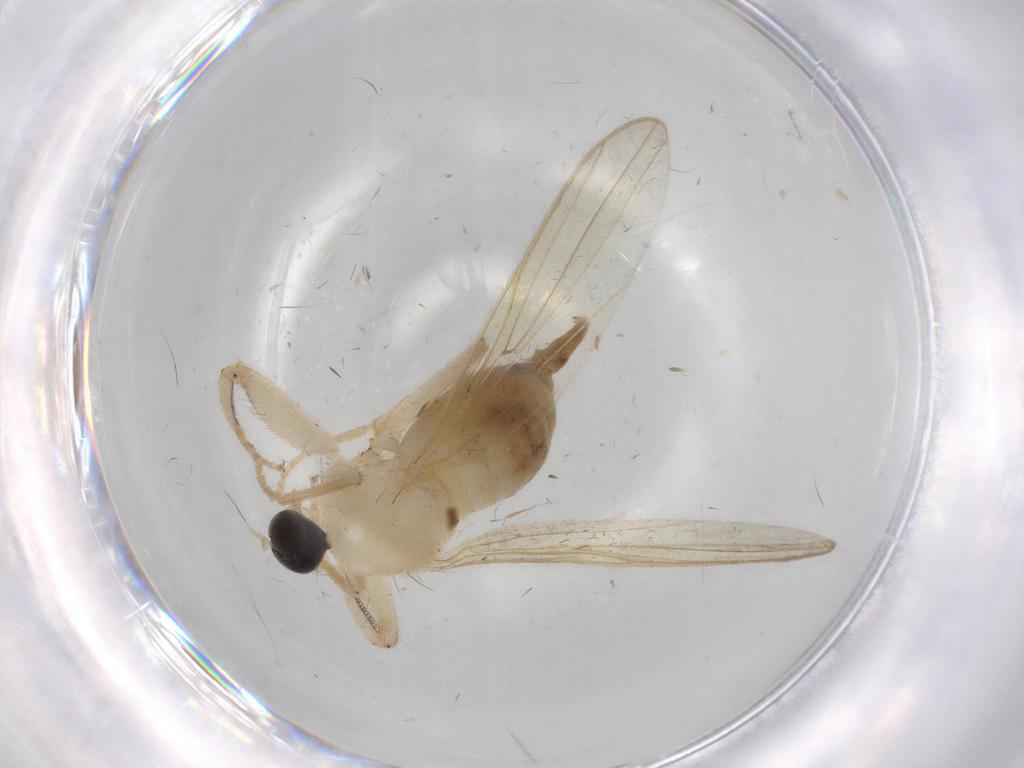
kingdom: Animalia
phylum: Arthropoda
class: Insecta
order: Diptera
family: Hybotidae
